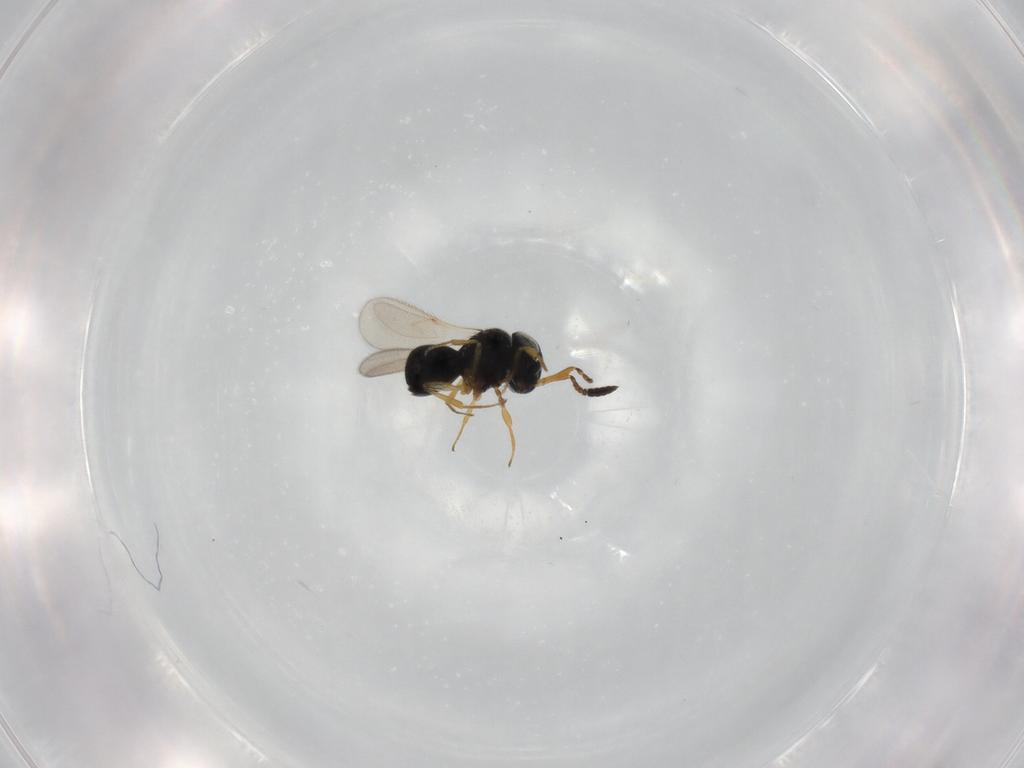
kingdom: Animalia
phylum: Arthropoda
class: Insecta
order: Hymenoptera
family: Scelionidae
